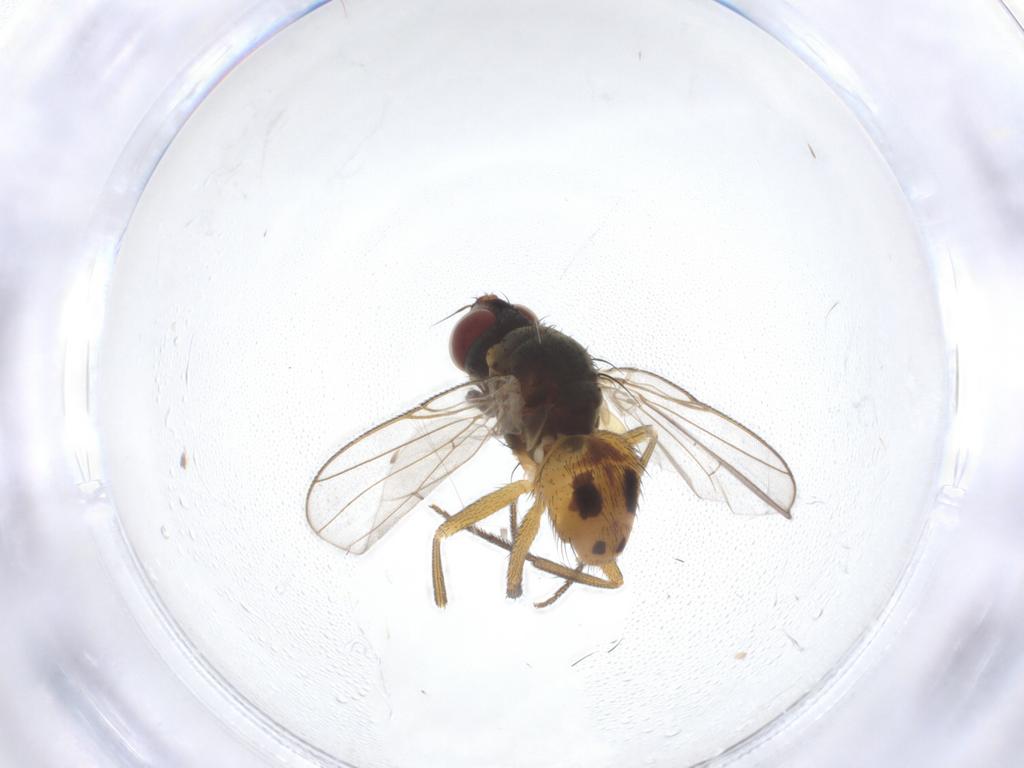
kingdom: Animalia
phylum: Arthropoda
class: Insecta
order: Diptera
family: Muscidae
